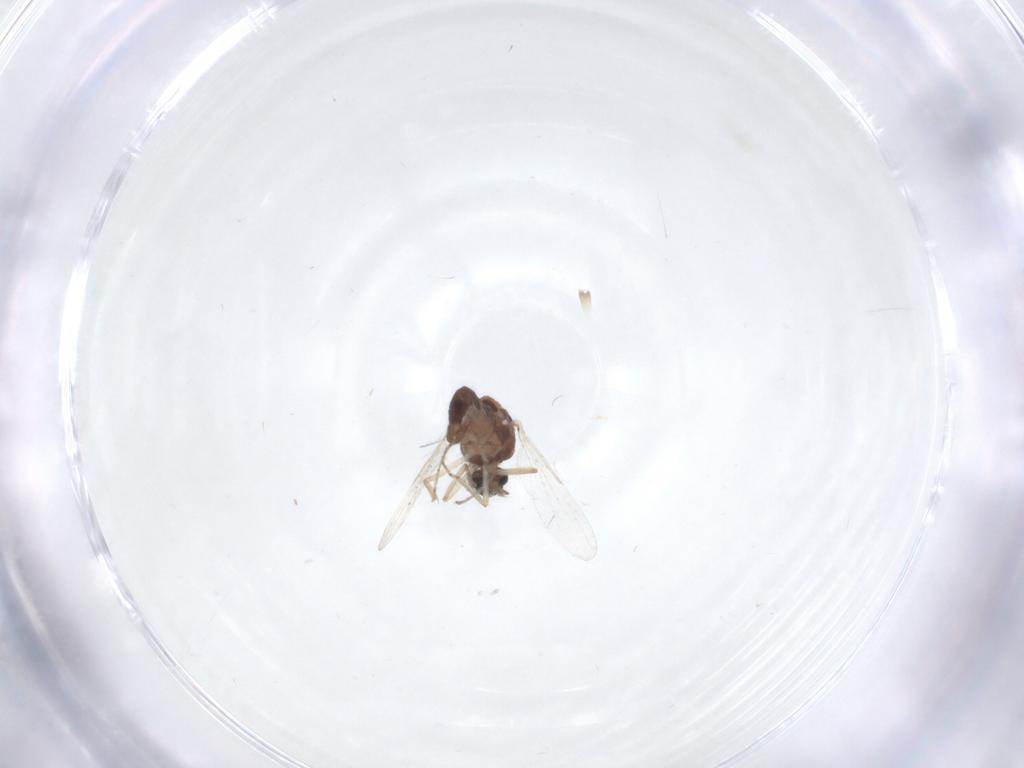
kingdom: Animalia
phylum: Arthropoda
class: Insecta
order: Diptera
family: Ceratopogonidae
